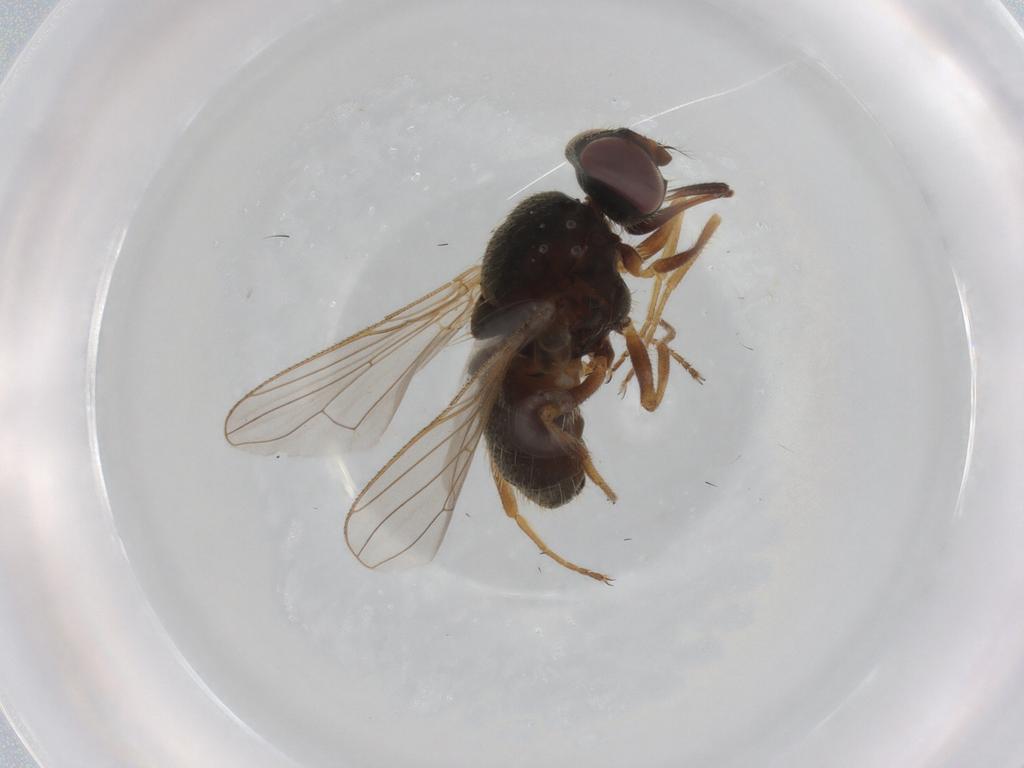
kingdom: Animalia
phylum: Arthropoda
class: Insecta
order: Diptera
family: Muscidae
